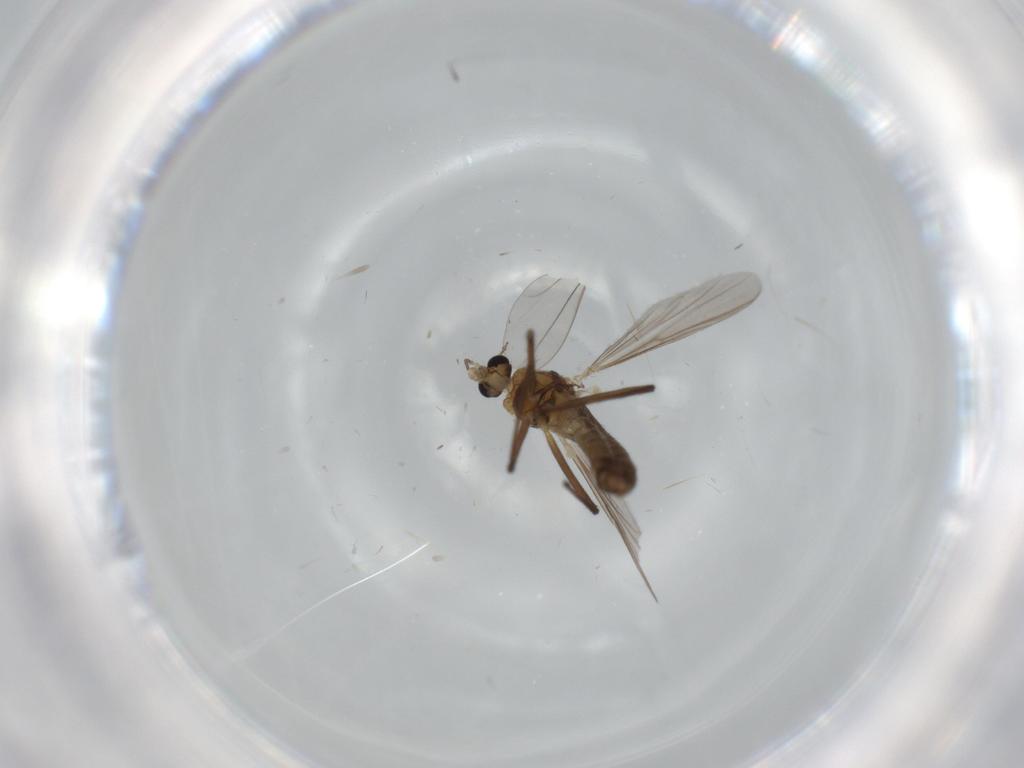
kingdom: Animalia
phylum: Arthropoda
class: Insecta
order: Diptera
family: Chironomidae
